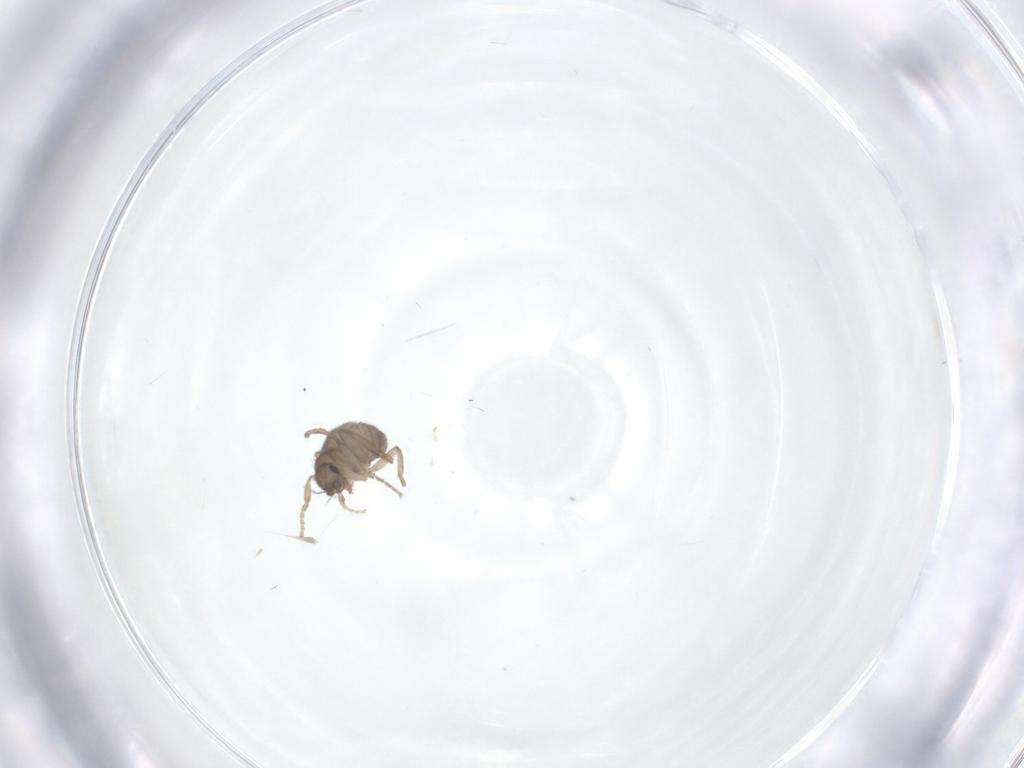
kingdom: Animalia
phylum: Arthropoda
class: Insecta
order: Diptera
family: Phoridae
